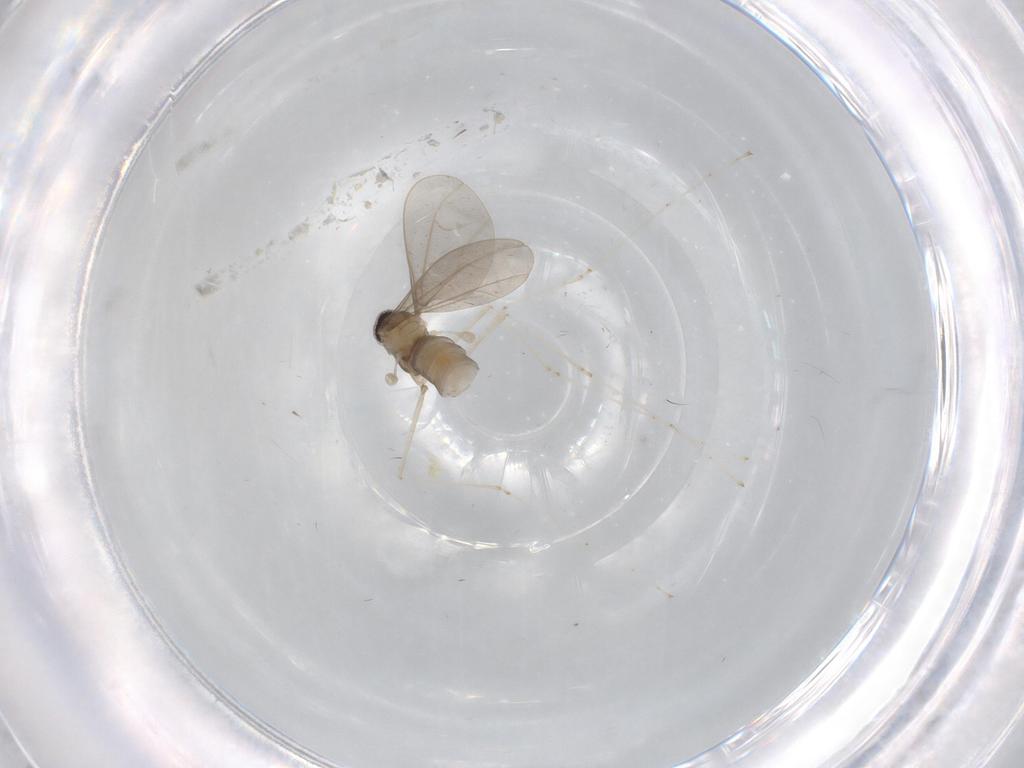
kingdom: Animalia
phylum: Arthropoda
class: Insecta
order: Diptera
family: Cecidomyiidae
